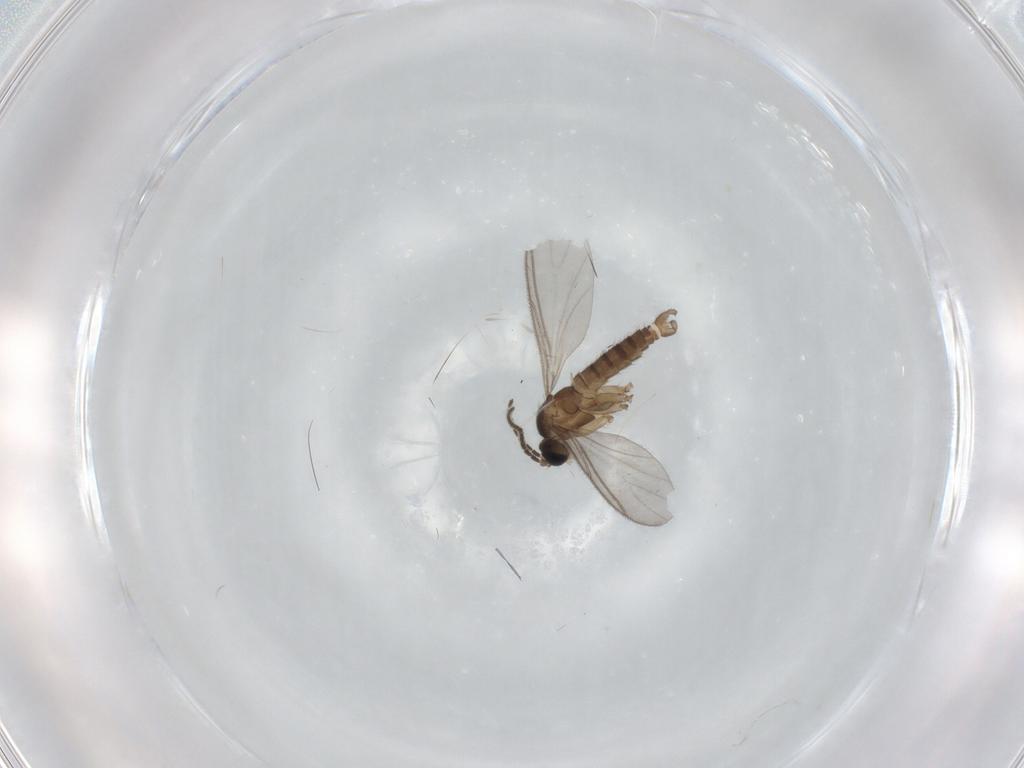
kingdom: Animalia
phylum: Arthropoda
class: Insecta
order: Diptera
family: Sciaridae
